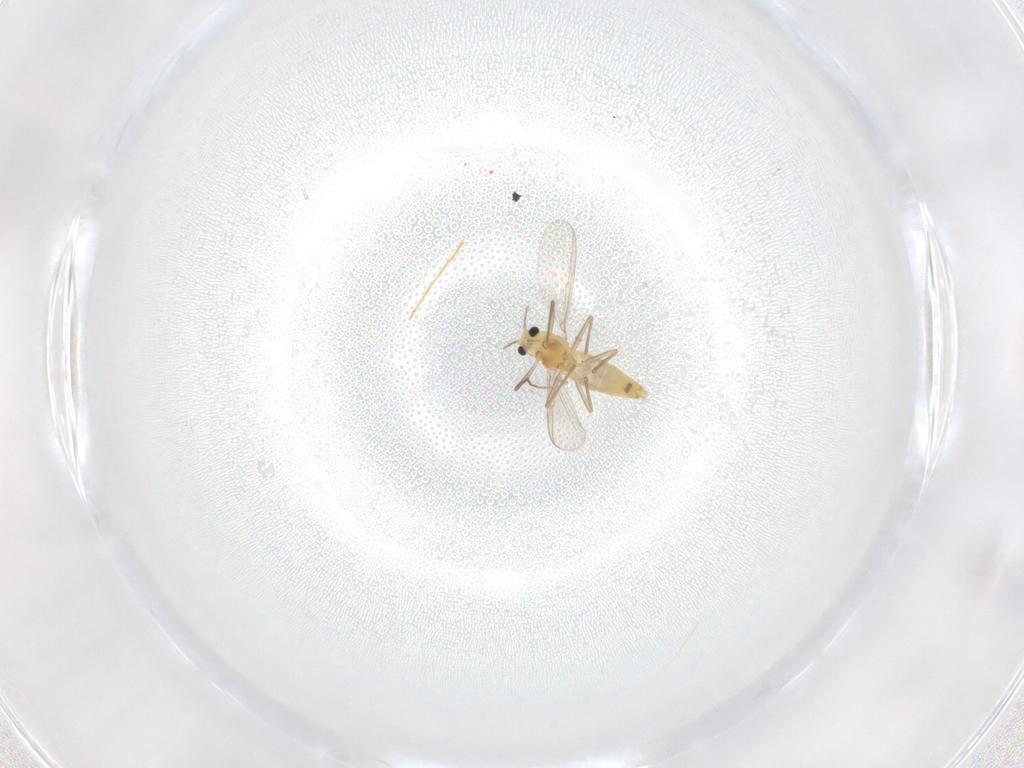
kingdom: Animalia
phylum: Arthropoda
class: Insecta
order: Diptera
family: Chironomidae
